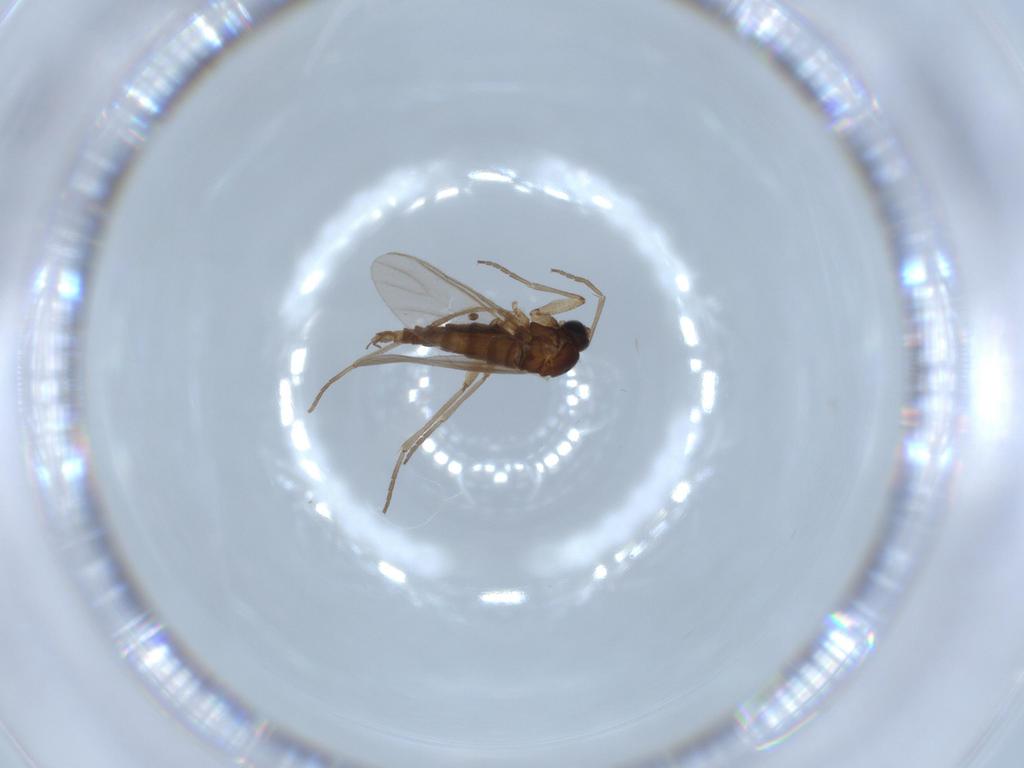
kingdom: Animalia
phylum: Arthropoda
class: Insecta
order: Diptera
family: Sciaridae
